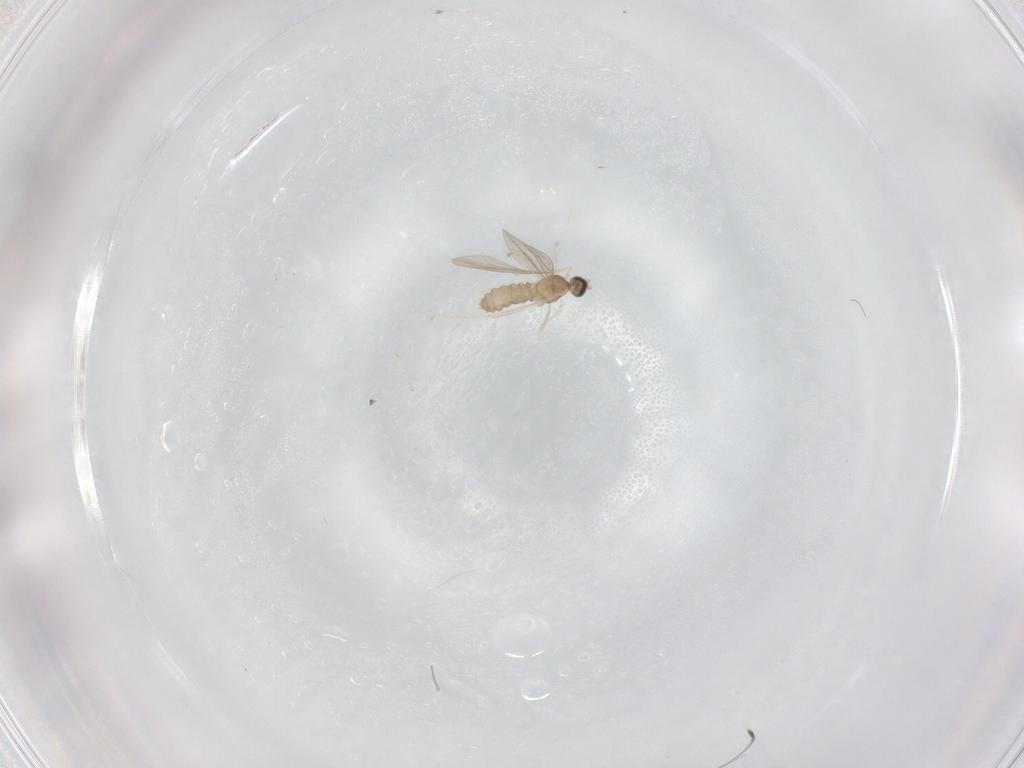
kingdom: Animalia
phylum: Arthropoda
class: Insecta
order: Diptera
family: Cecidomyiidae
